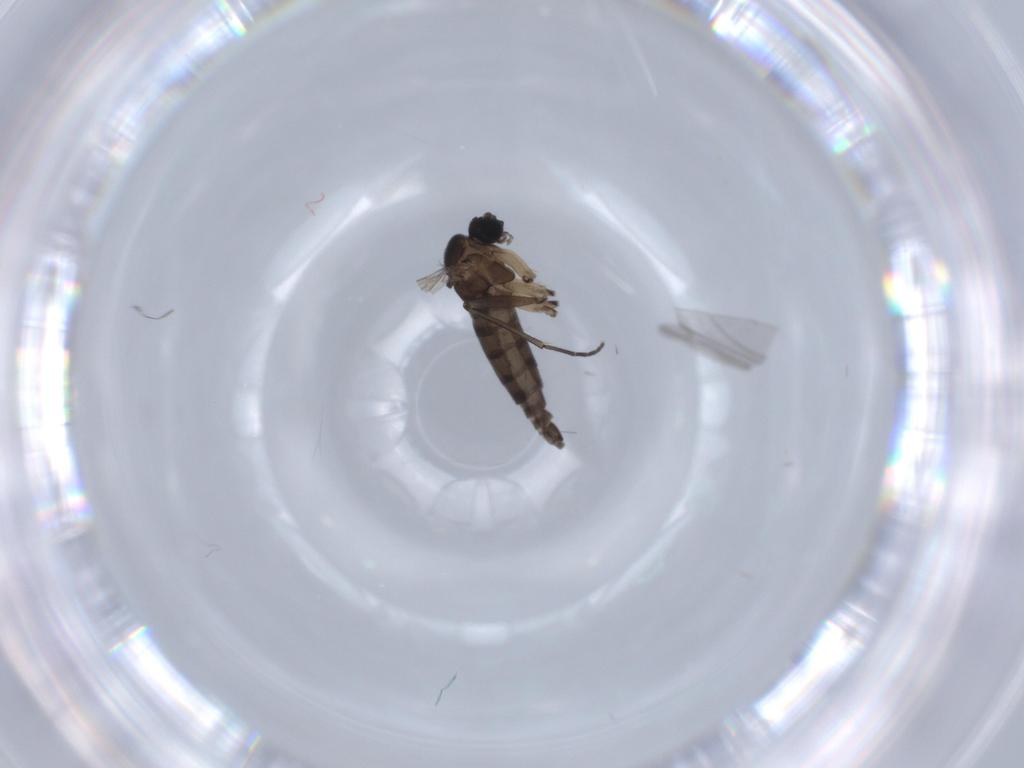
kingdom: Animalia
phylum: Arthropoda
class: Insecta
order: Diptera
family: Sciaridae
